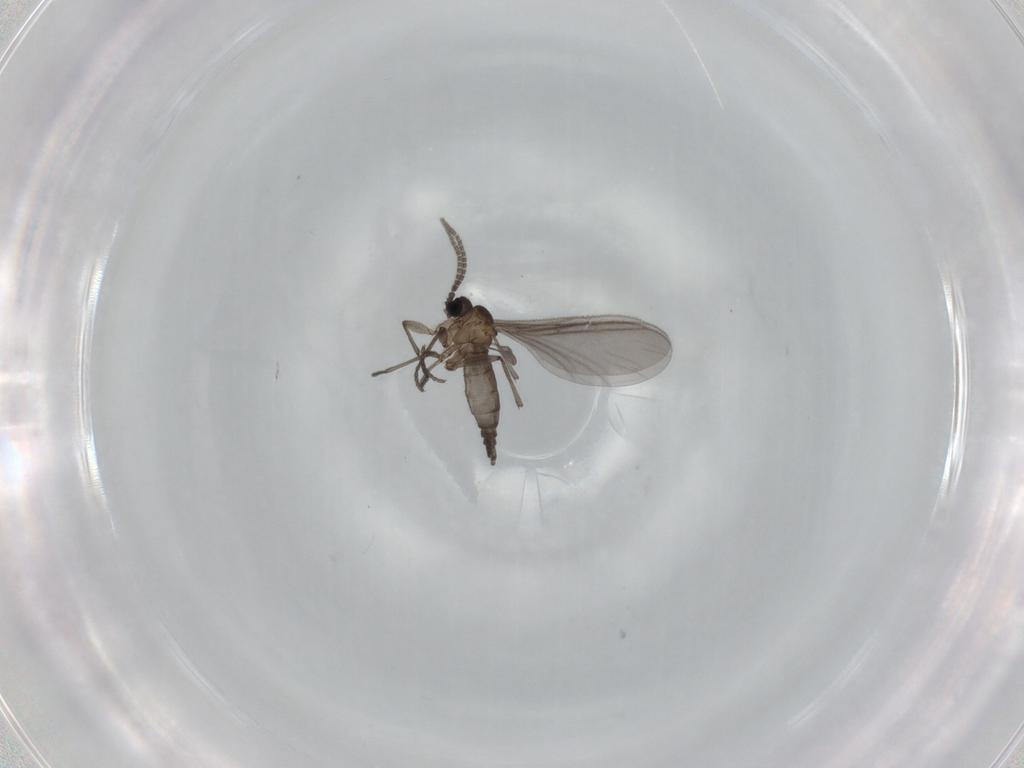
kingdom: Animalia
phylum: Arthropoda
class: Insecta
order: Diptera
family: Sciaridae
